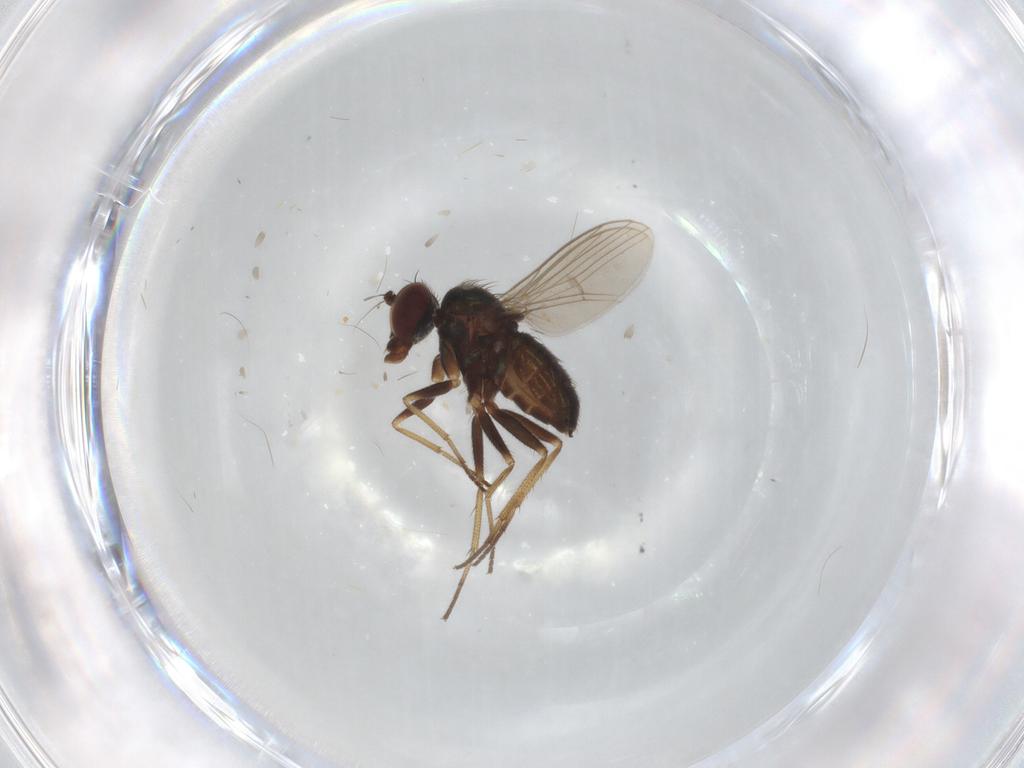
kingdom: Animalia
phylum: Arthropoda
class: Insecta
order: Diptera
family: Dolichopodidae
